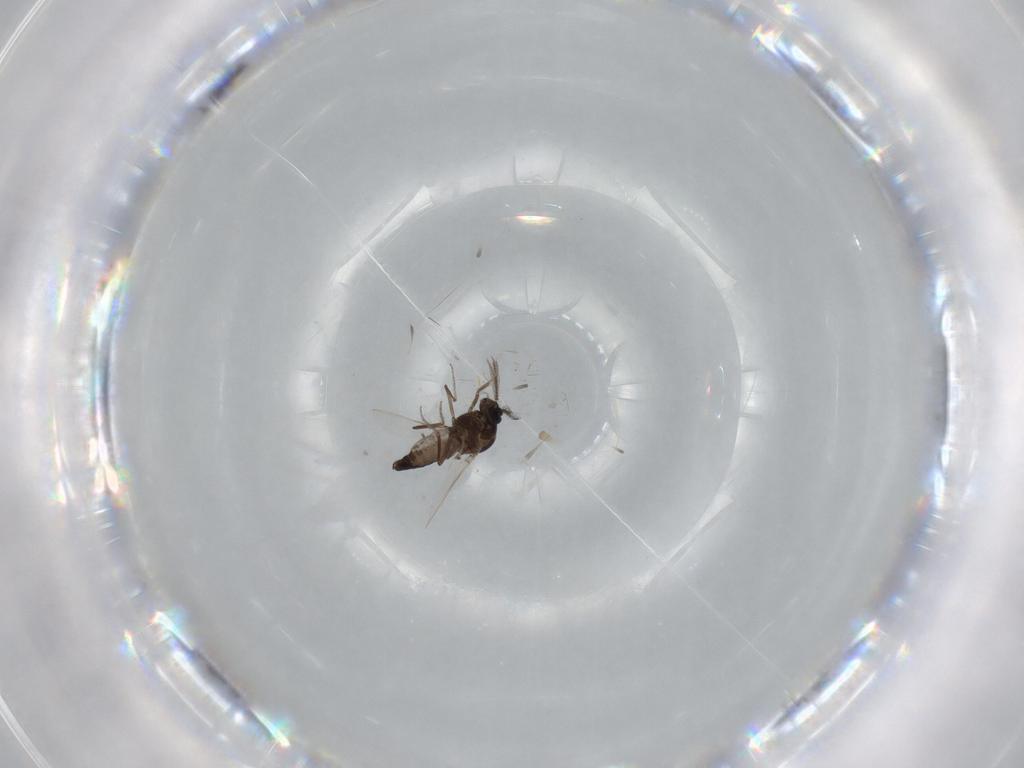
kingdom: Animalia
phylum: Arthropoda
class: Insecta
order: Diptera
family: Ceratopogonidae
